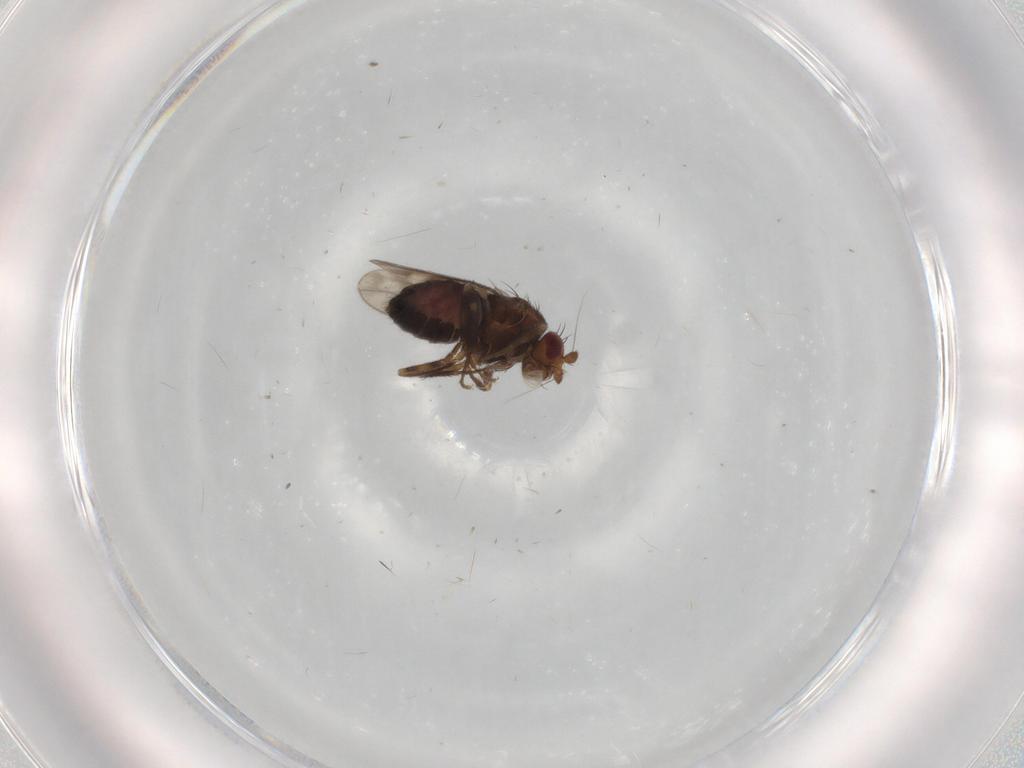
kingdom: Animalia
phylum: Arthropoda
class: Insecta
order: Diptera
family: Sphaeroceridae
